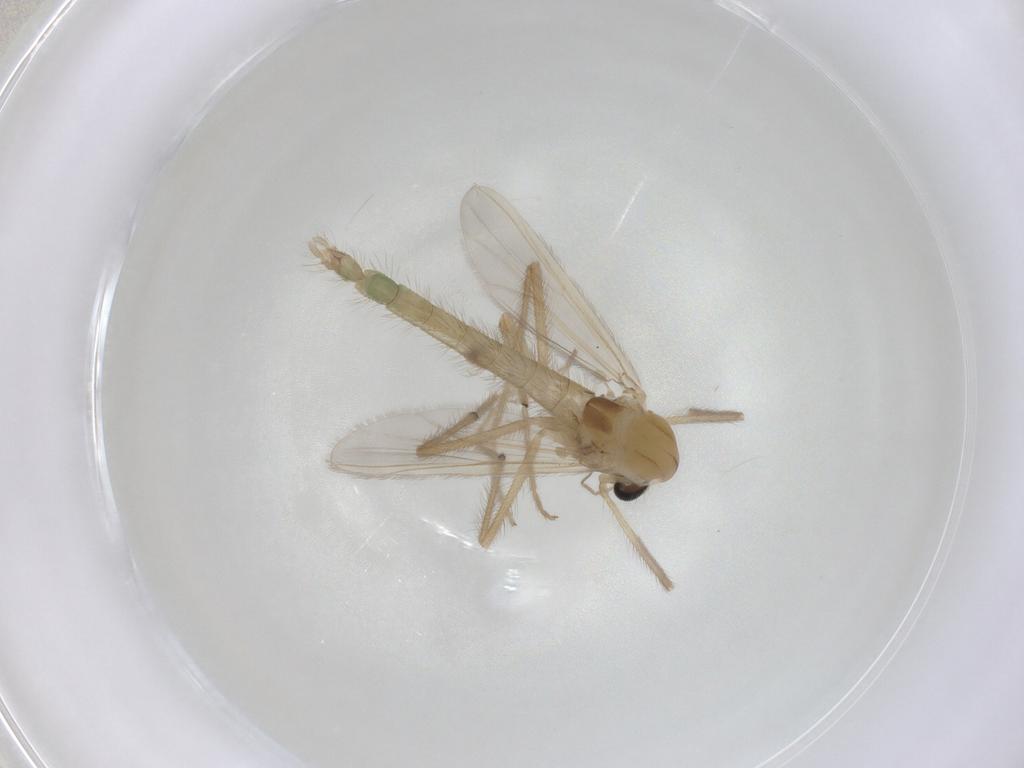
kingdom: Animalia
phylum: Arthropoda
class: Insecta
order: Diptera
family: Chironomidae
